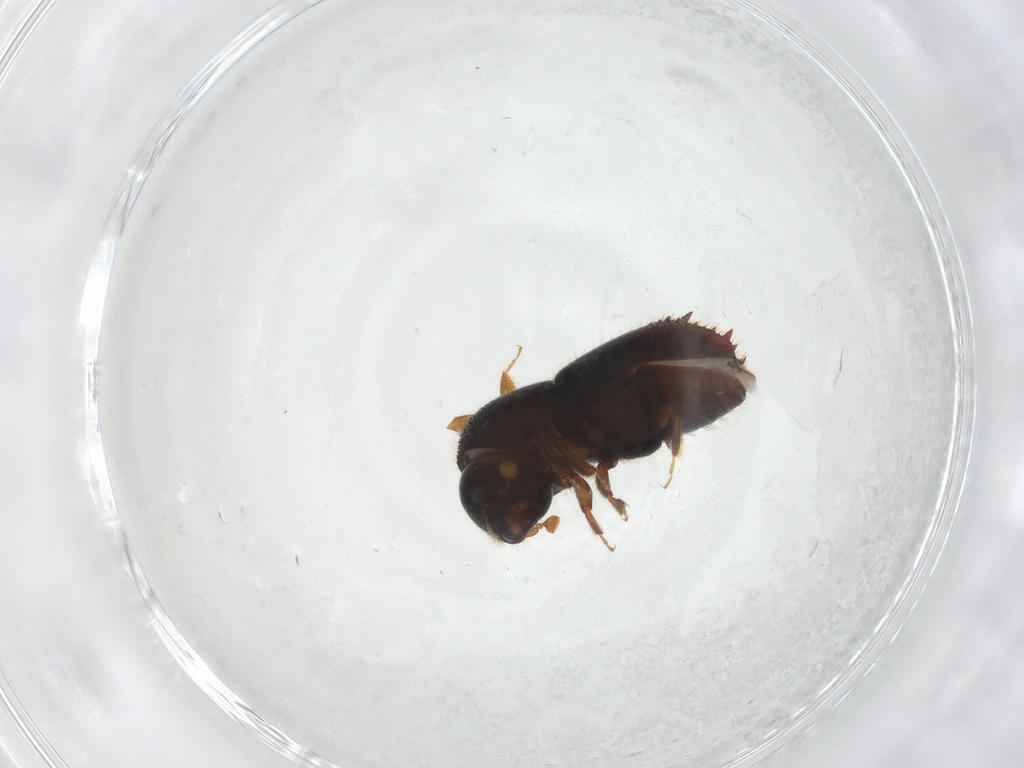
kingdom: Animalia
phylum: Arthropoda
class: Insecta
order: Coleoptera
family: Curculionidae
